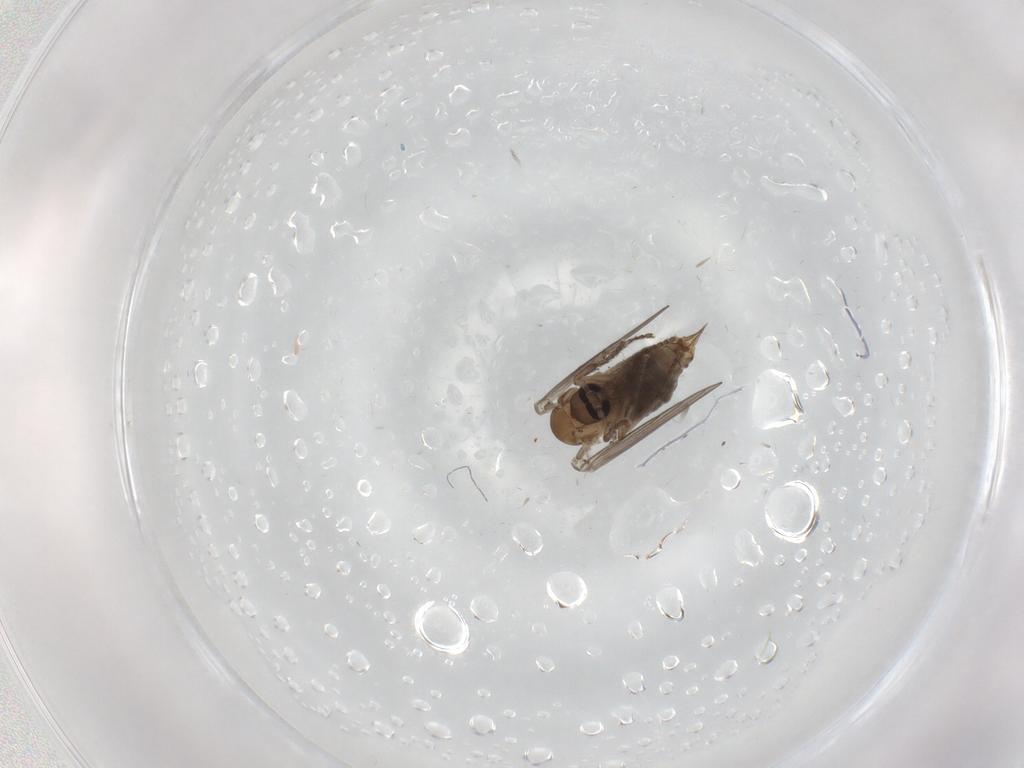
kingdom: Animalia
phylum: Arthropoda
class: Insecta
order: Diptera
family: Psychodidae
